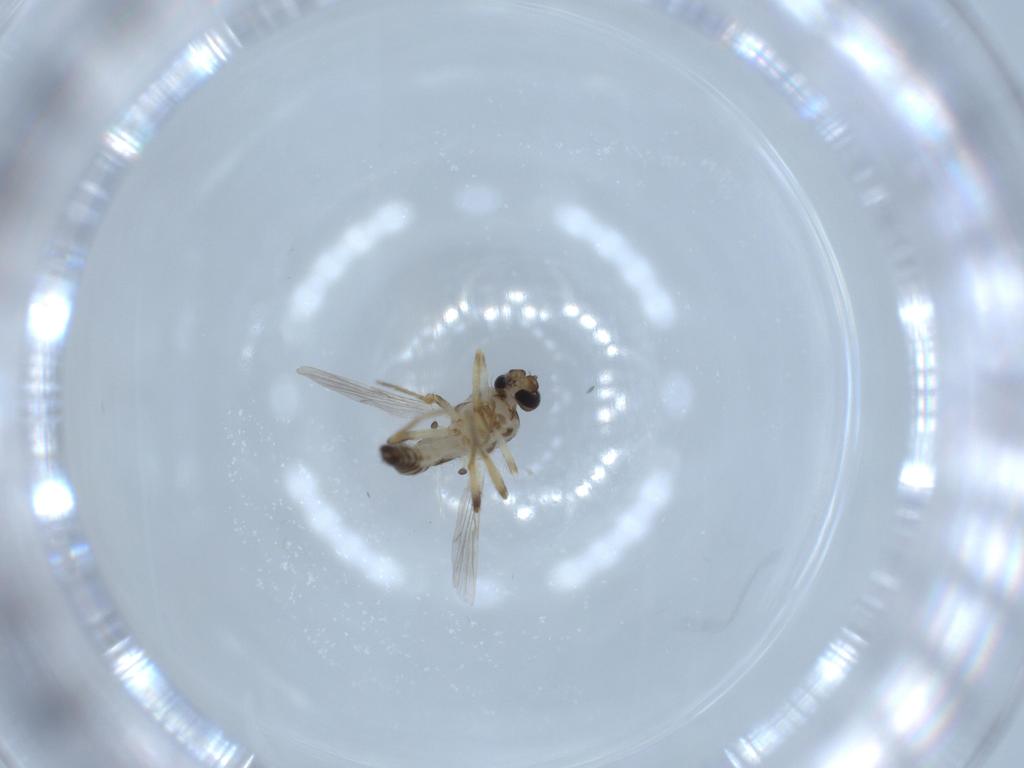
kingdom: Animalia
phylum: Arthropoda
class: Insecta
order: Diptera
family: Ceratopogonidae
